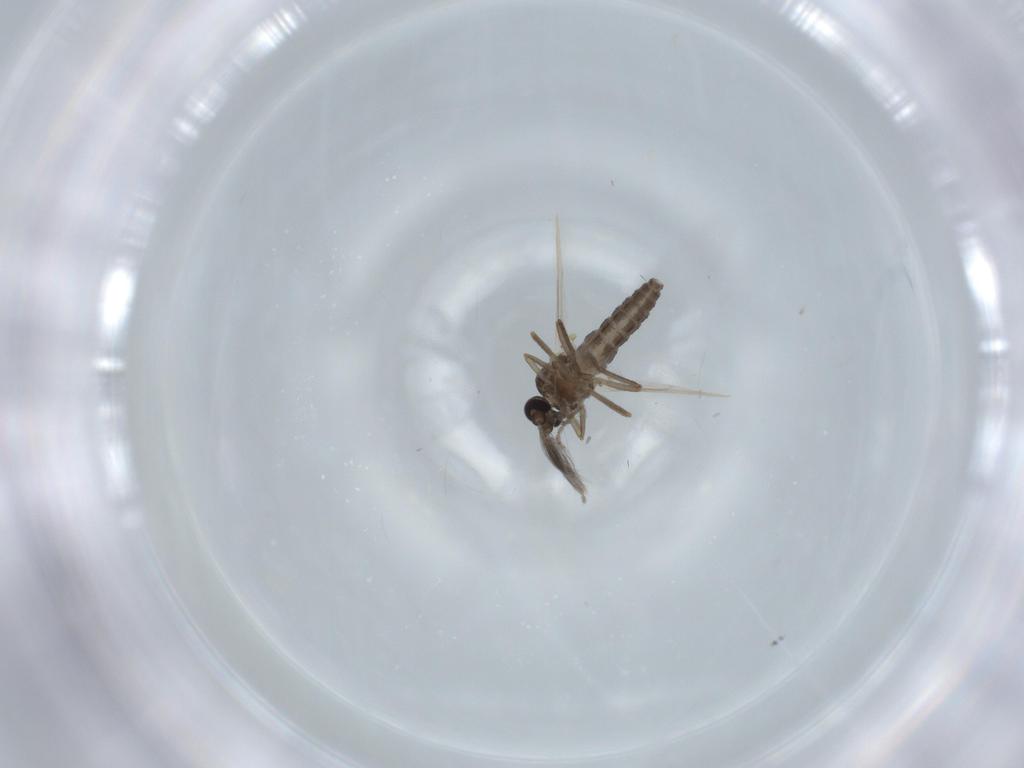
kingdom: Animalia
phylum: Arthropoda
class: Insecta
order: Diptera
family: Ceratopogonidae
